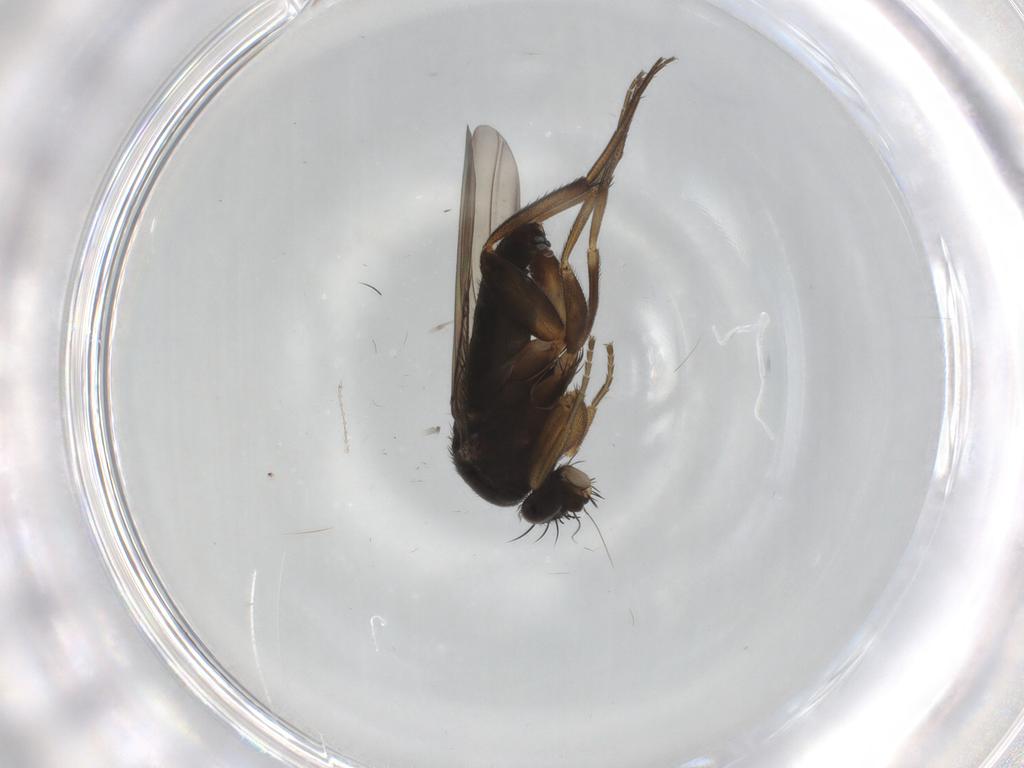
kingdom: Animalia
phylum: Arthropoda
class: Insecta
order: Diptera
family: Phoridae
